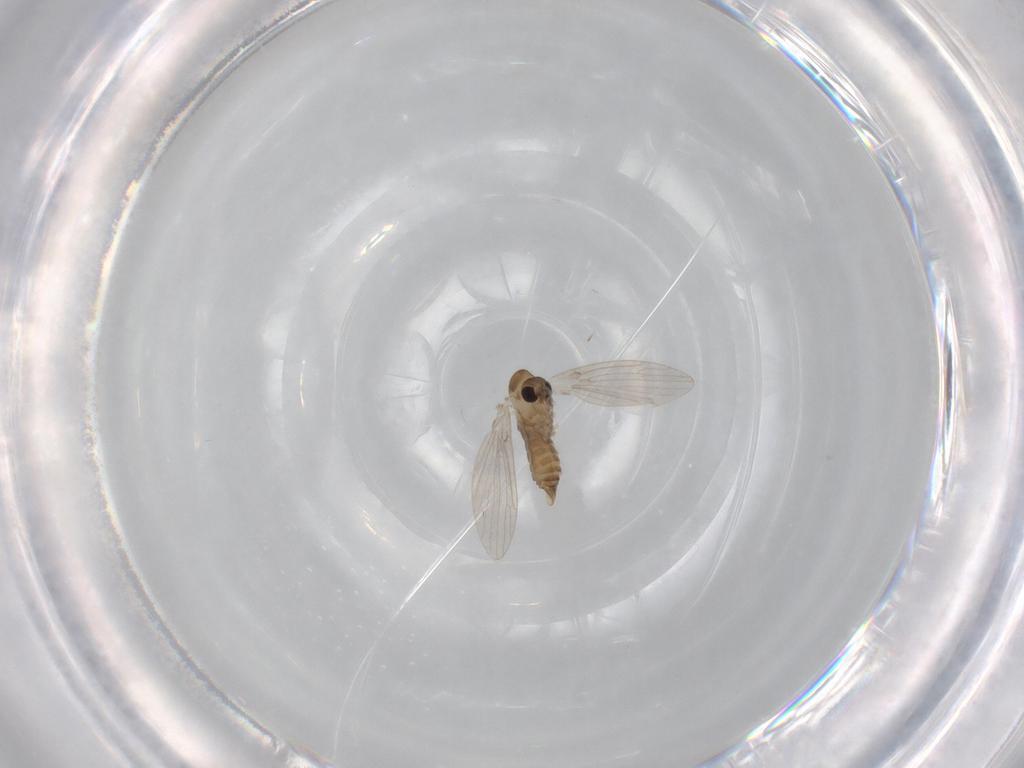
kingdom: Animalia
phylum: Arthropoda
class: Insecta
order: Diptera
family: Psychodidae
